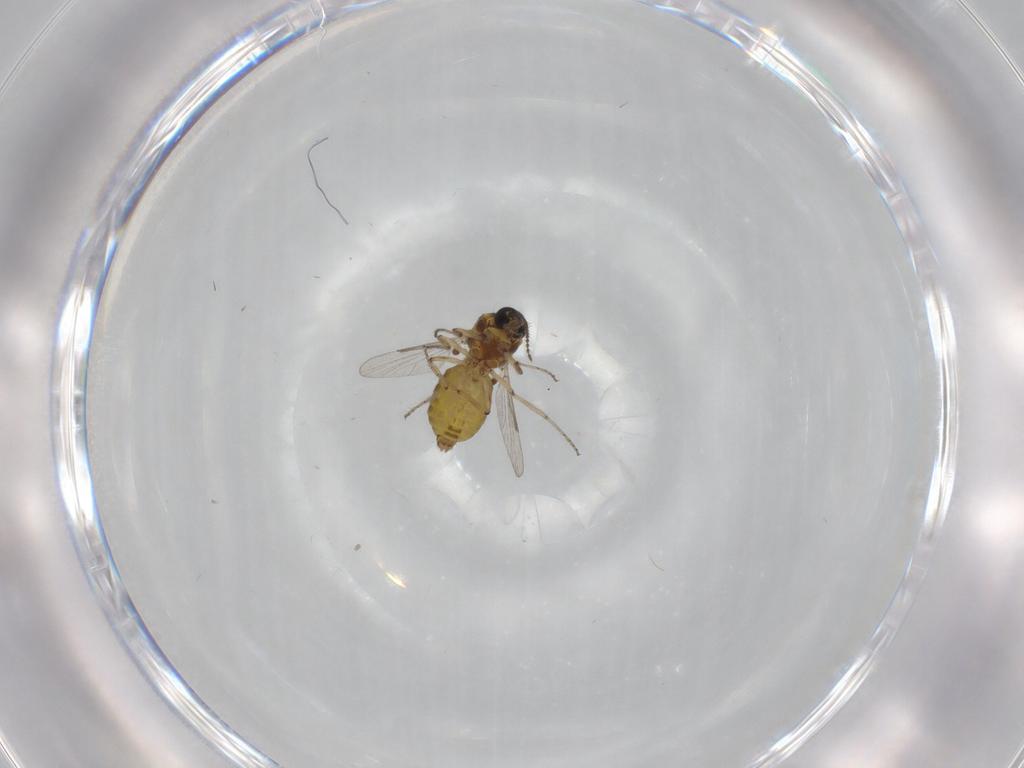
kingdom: Animalia
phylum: Arthropoda
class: Insecta
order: Diptera
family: Ceratopogonidae
